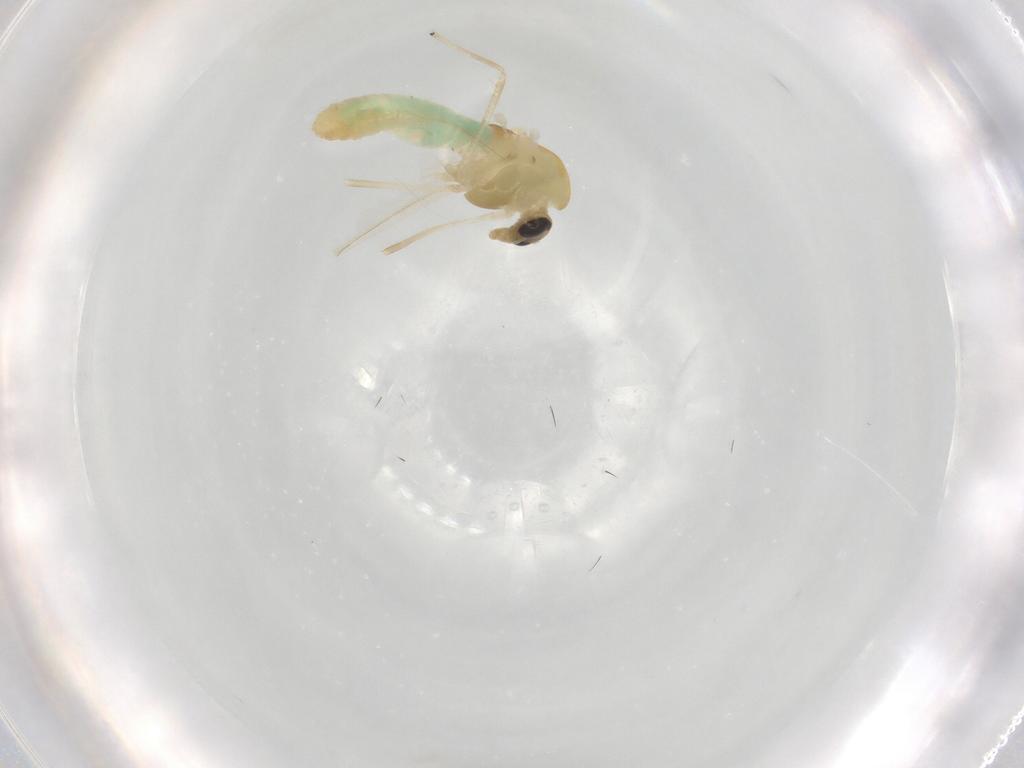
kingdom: Animalia
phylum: Arthropoda
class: Insecta
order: Diptera
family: Chironomidae
